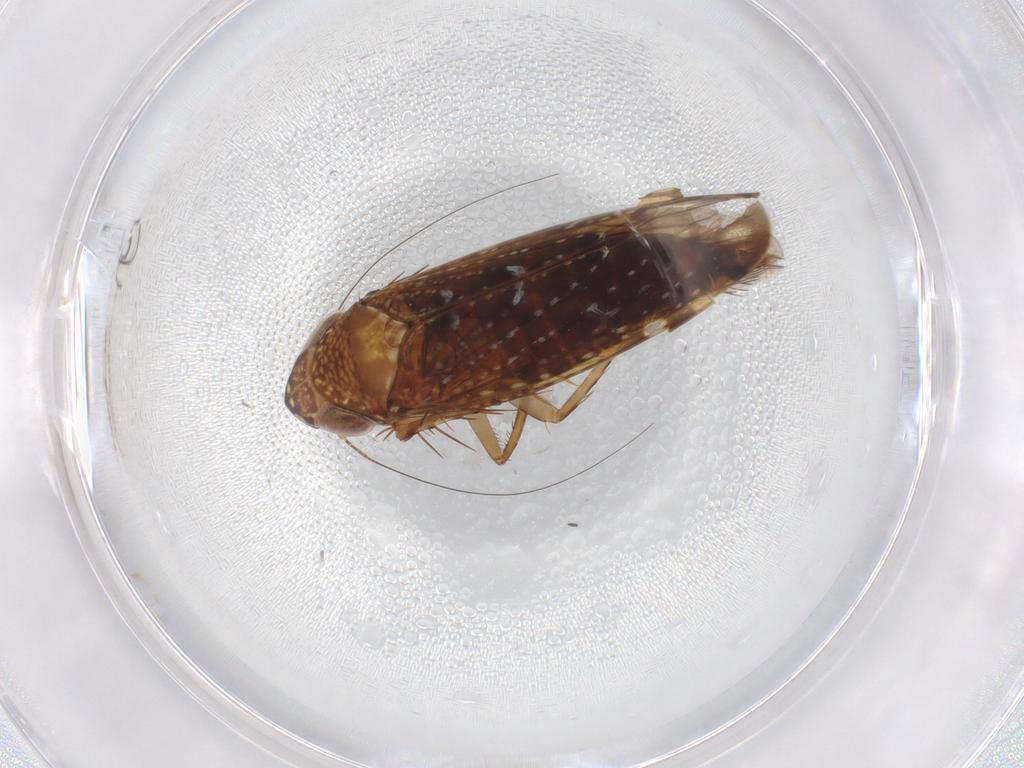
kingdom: Animalia
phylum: Arthropoda
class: Insecta
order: Hemiptera
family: Cicadellidae
